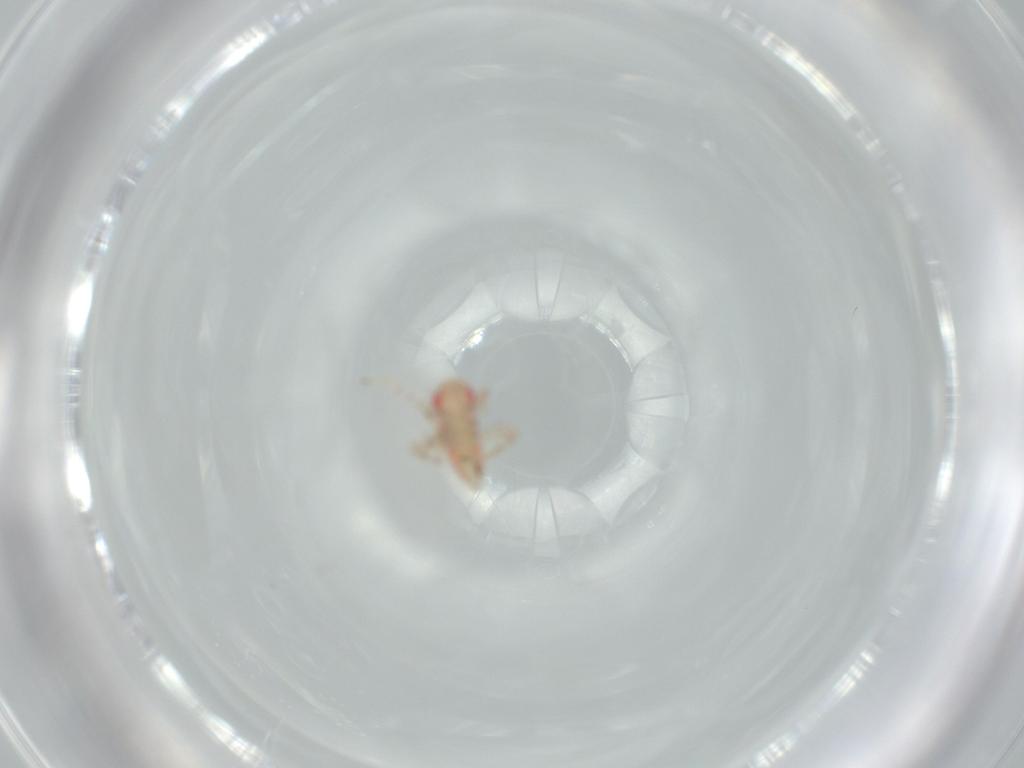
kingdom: Animalia
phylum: Arthropoda
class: Insecta
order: Hemiptera
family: Miridae
